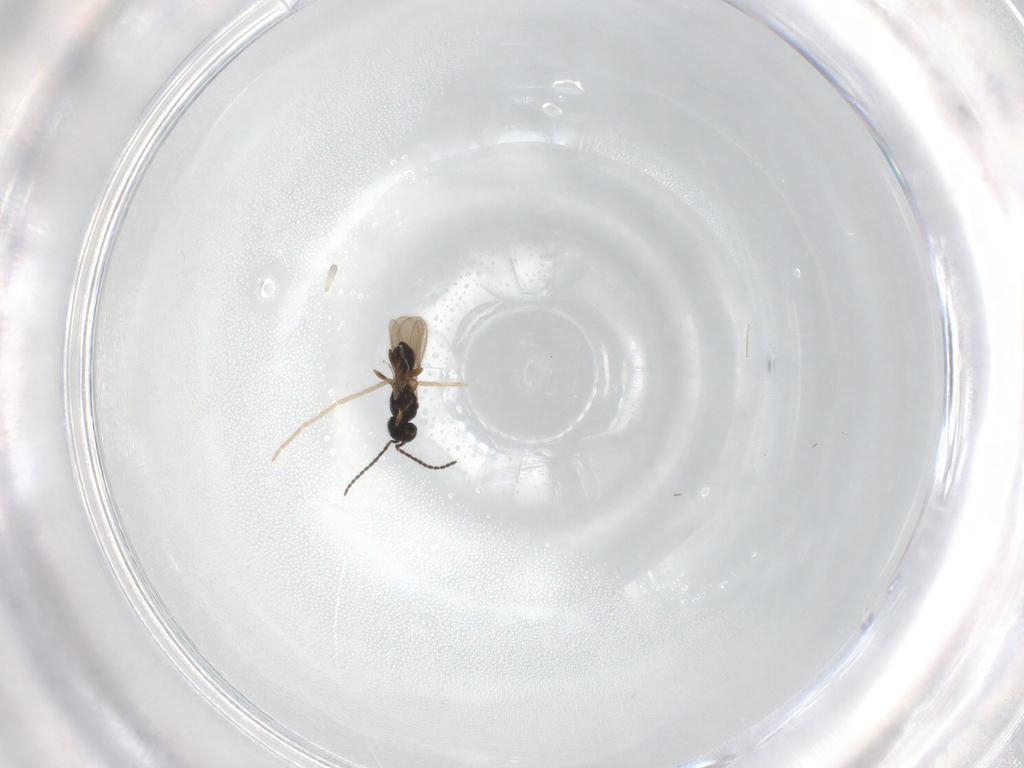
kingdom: Animalia
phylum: Arthropoda
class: Insecta
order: Hymenoptera
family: Scelionidae
